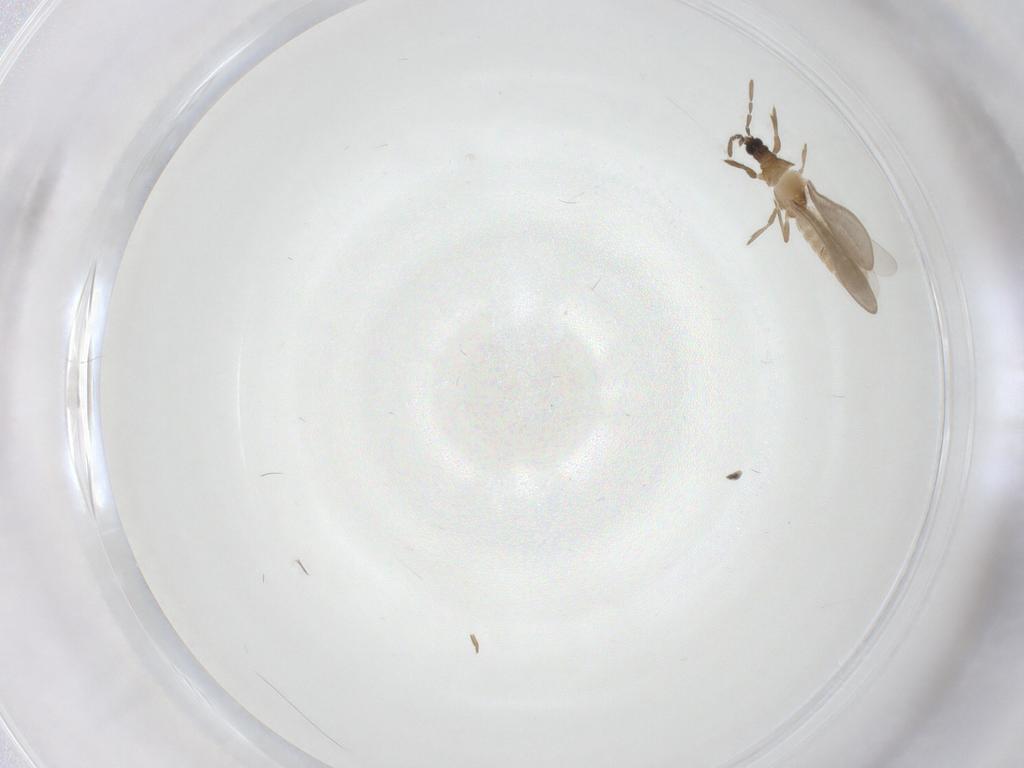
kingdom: Animalia
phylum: Arthropoda
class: Insecta
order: Hemiptera
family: Enicocephalidae
